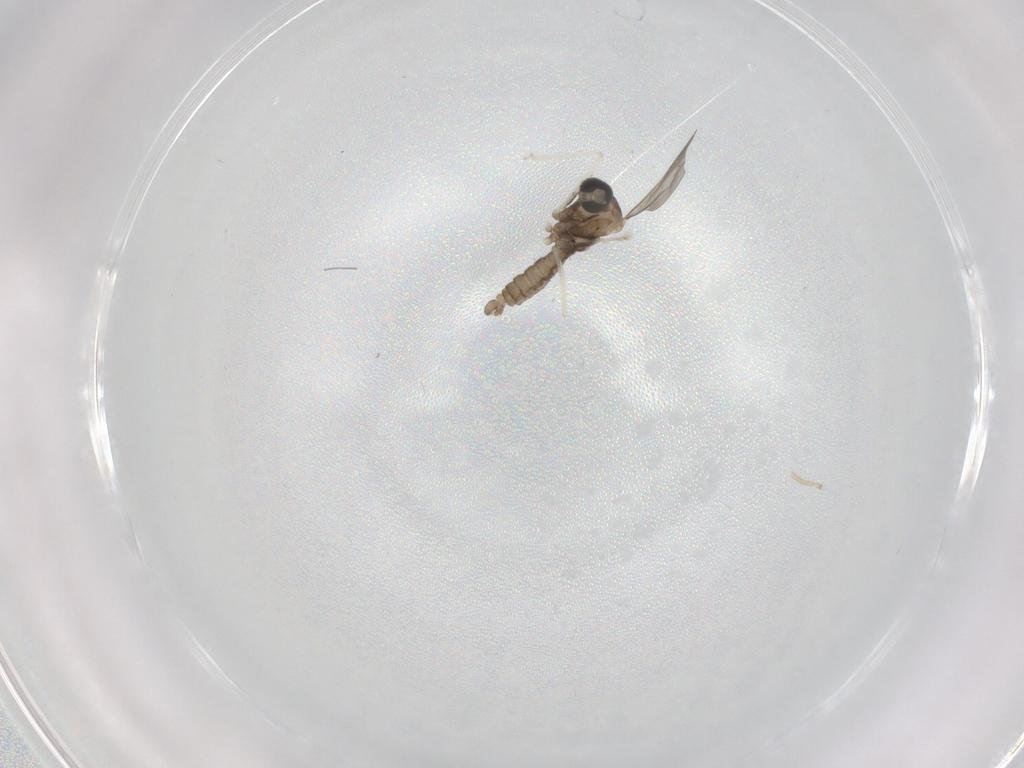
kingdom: Animalia
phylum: Arthropoda
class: Insecta
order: Diptera
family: Cecidomyiidae
